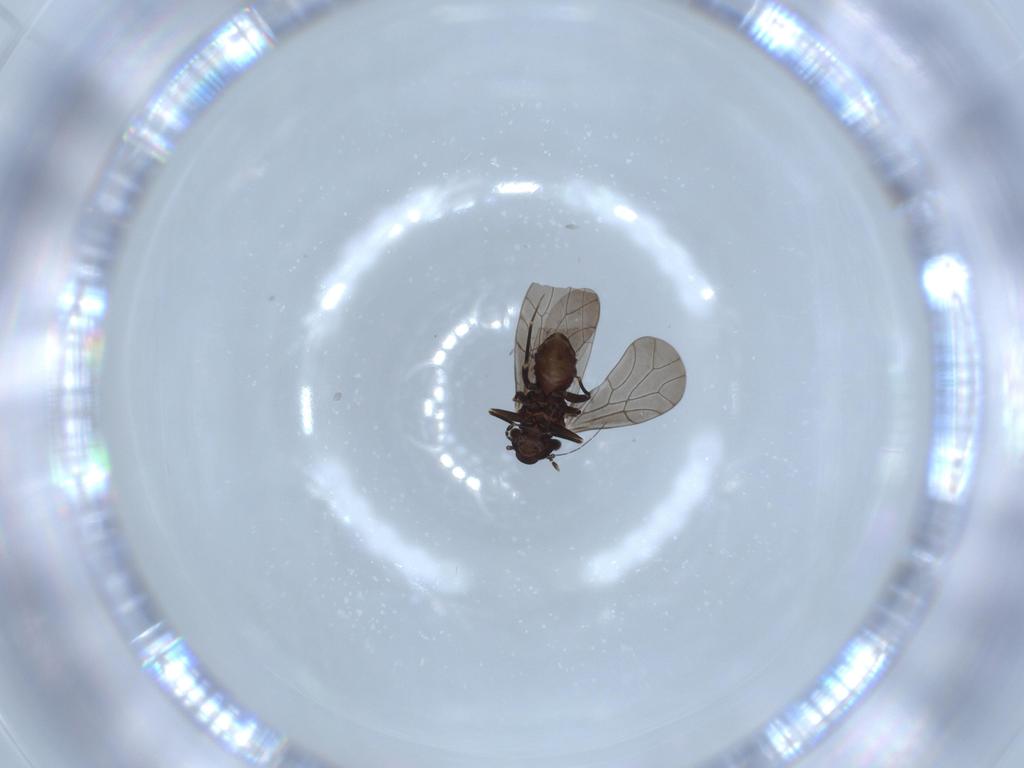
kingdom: Animalia
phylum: Arthropoda
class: Insecta
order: Psocodea
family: Lepidopsocidae
